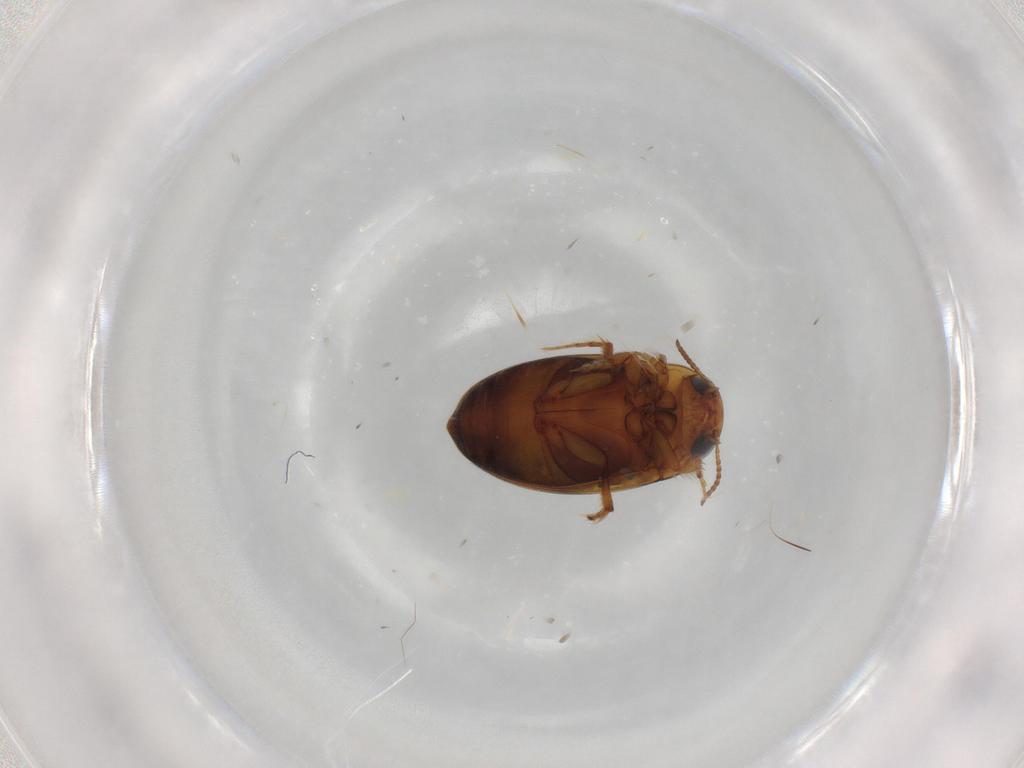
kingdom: Animalia
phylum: Arthropoda
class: Insecta
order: Coleoptera
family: Dytiscidae
